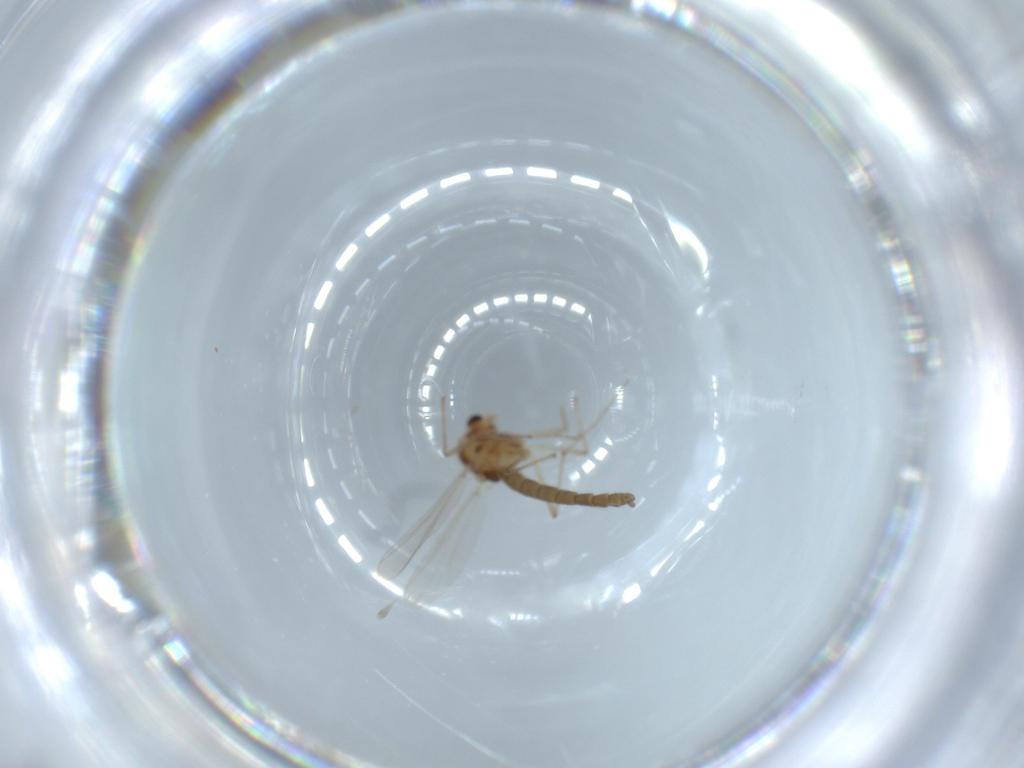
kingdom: Animalia
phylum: Arthropoda
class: Insecta
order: Diptera
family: Chironomidae
